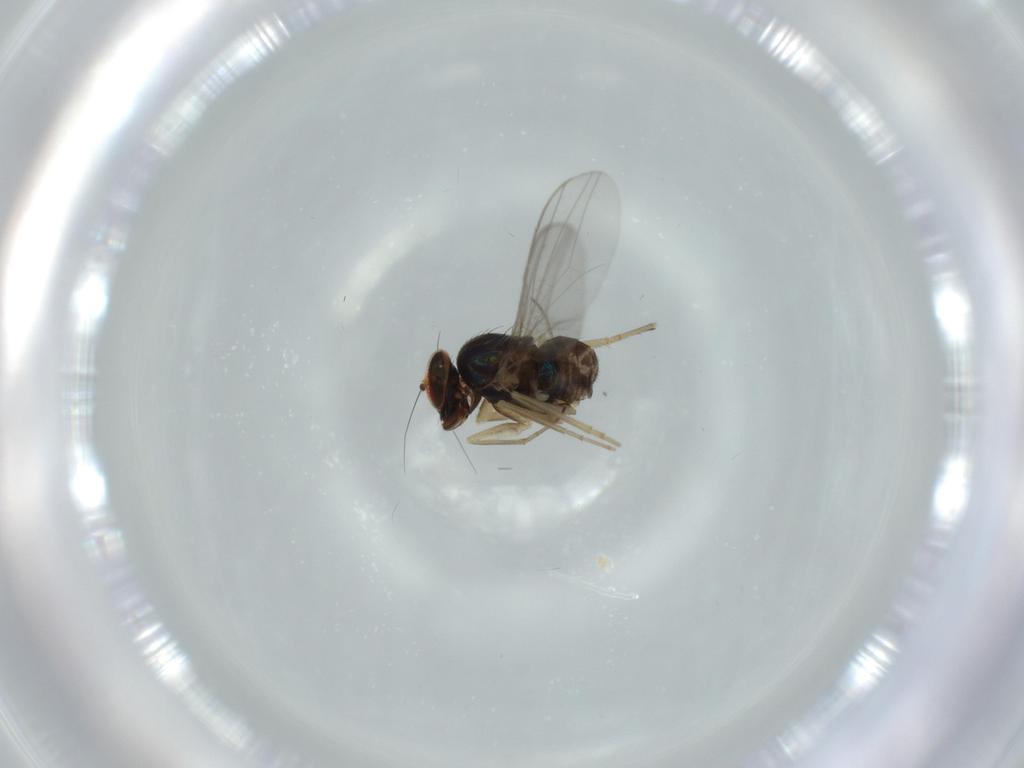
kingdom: Animalia
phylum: Arthropoda
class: Insecta
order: Diptera
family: Dolichopodidae
